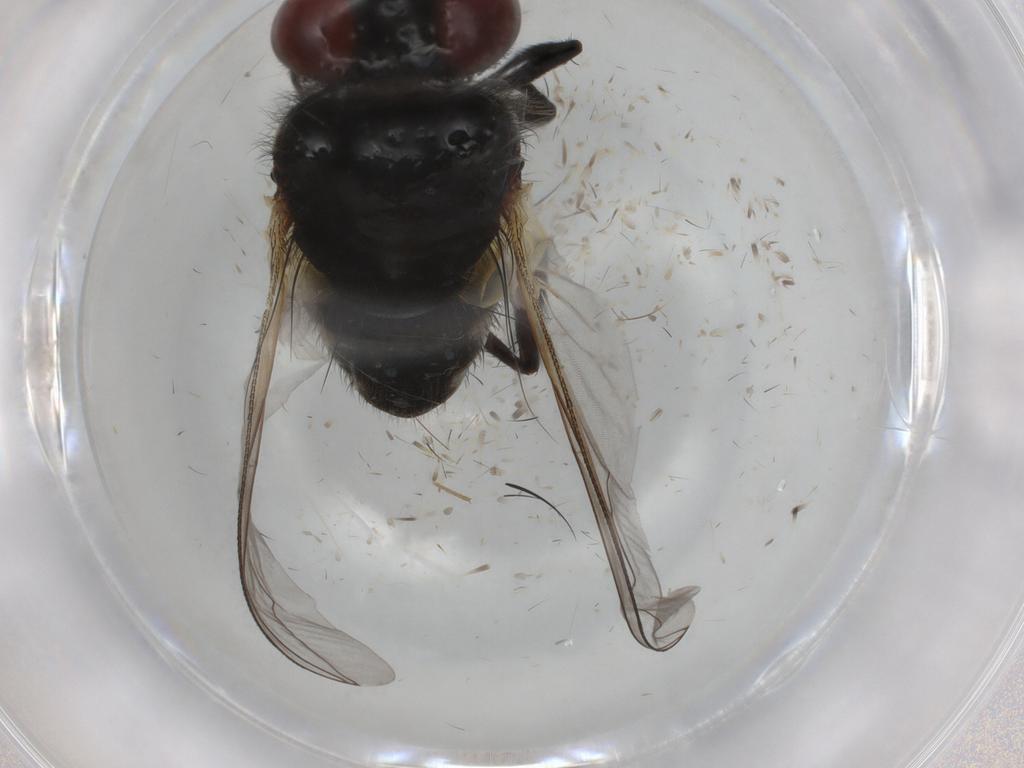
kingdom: Animalia
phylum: Arthropoda
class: Insecta
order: Diptera
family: Sarcophagidae
